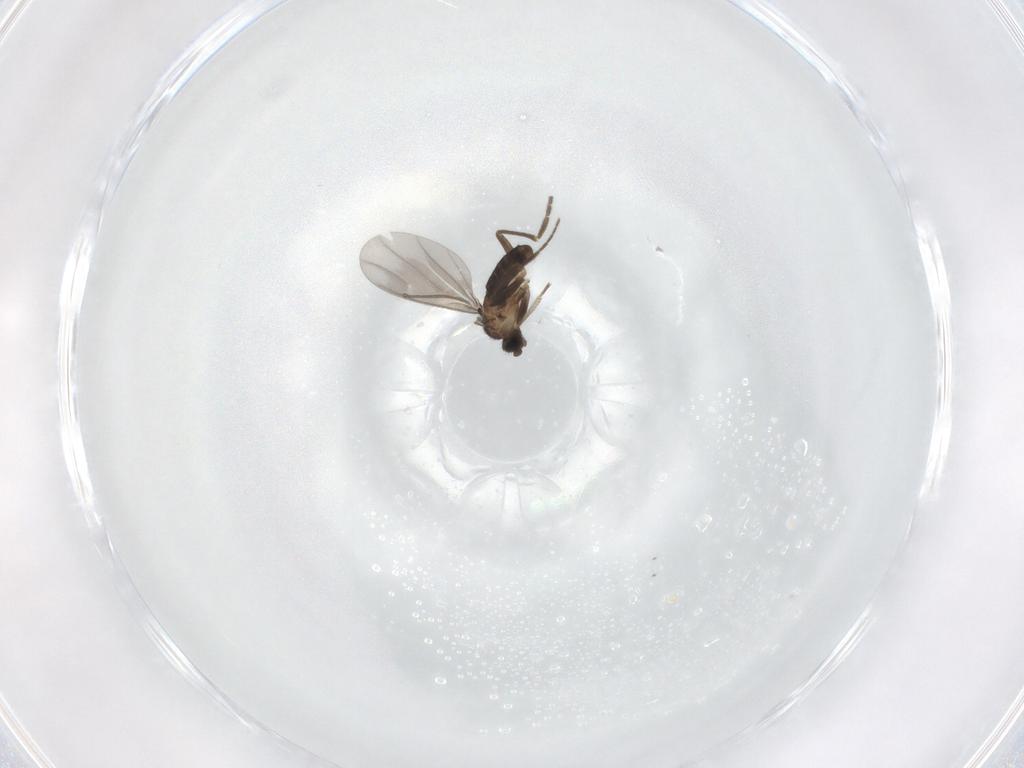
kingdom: Animalia
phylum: Arthropoda
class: Insecta
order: Diptera
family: Phoridae
